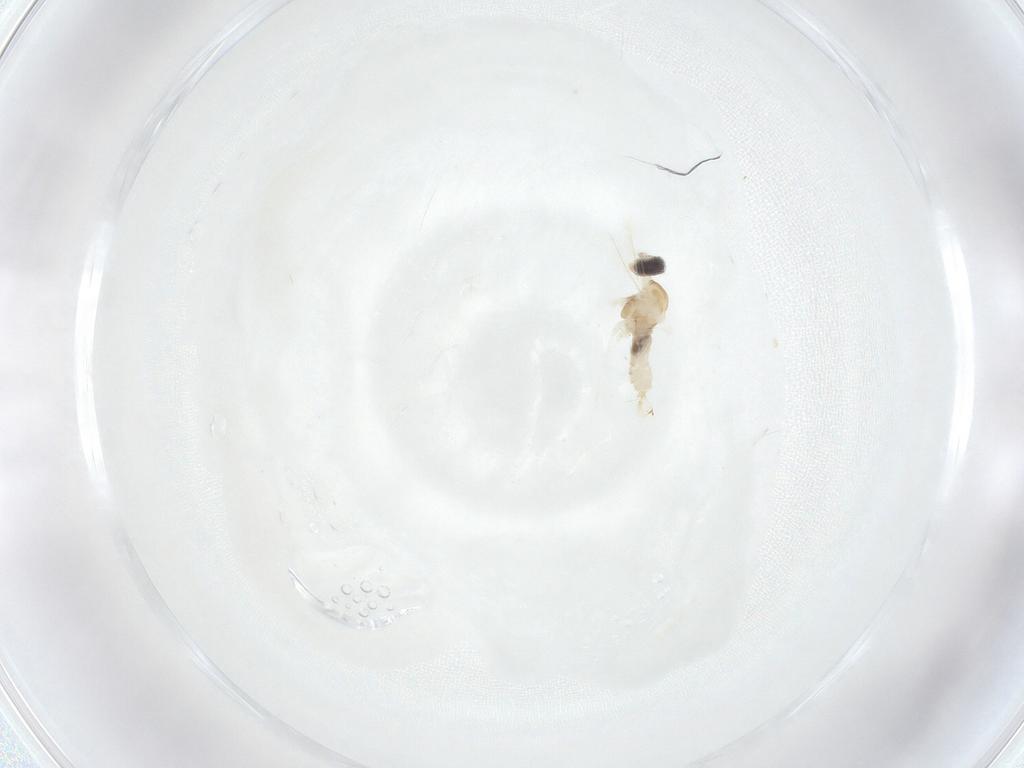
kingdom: Animalia
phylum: Arthropoda
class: Insecta
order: Diptera
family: Cecidomyiidae
